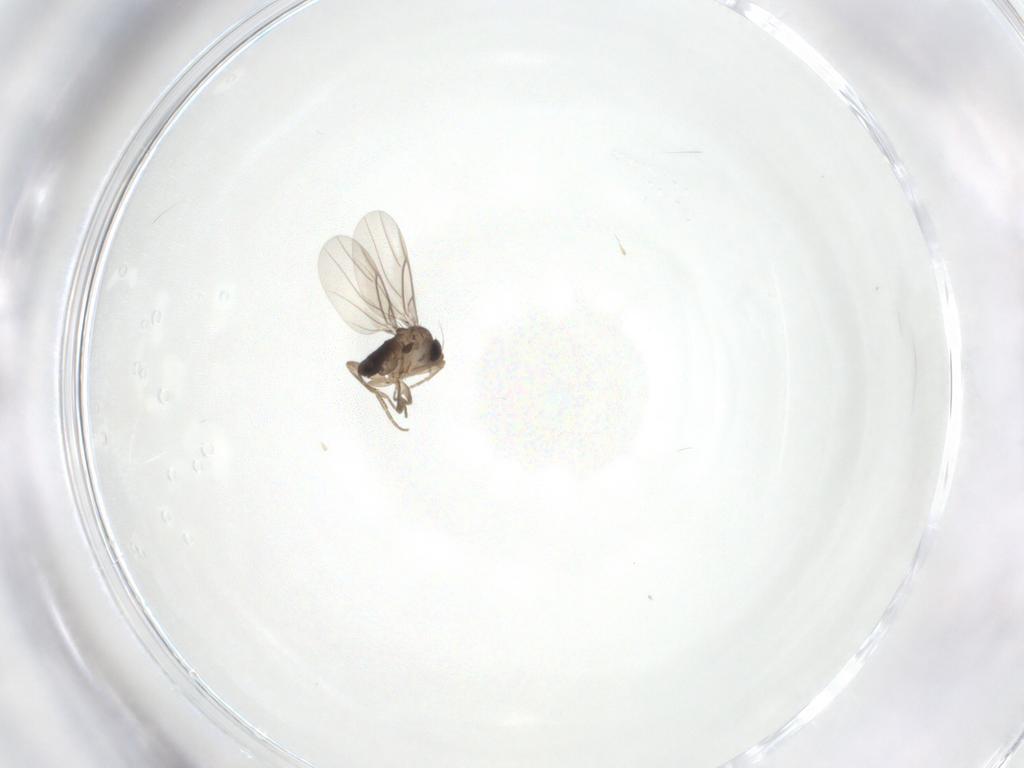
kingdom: Animalia
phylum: Arthropoda
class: Insecta
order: Diptera
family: Phoridae
